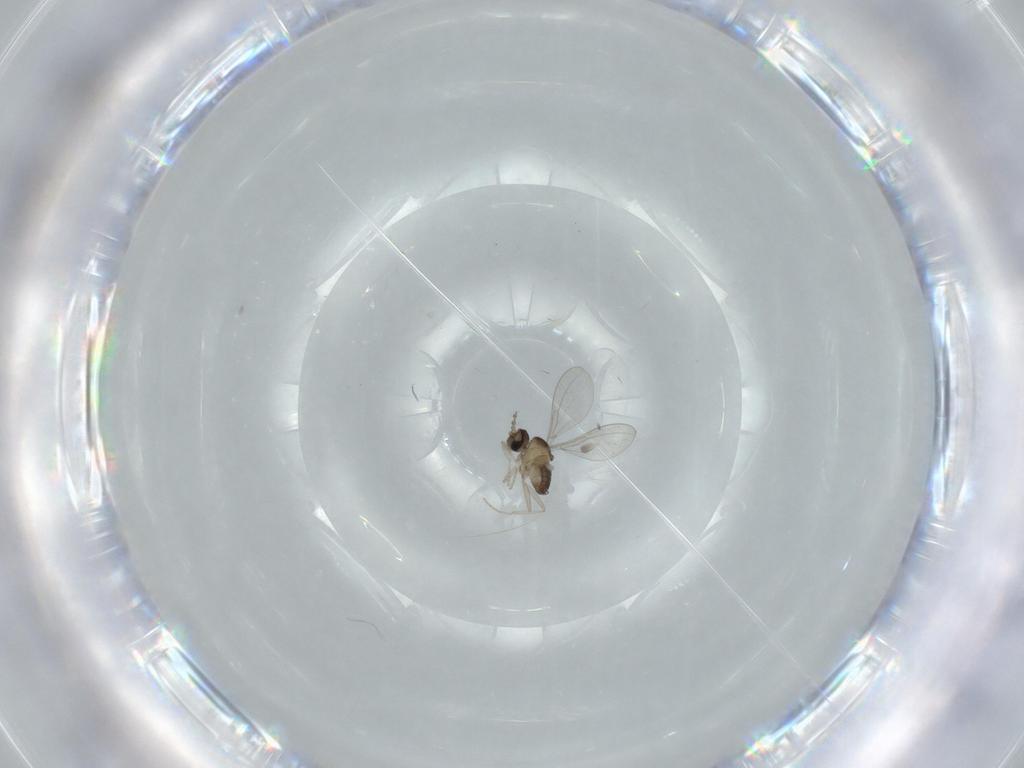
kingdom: Animalia
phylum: Arthropoda
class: Insecta
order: Diptera
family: Cecidomyiidae
